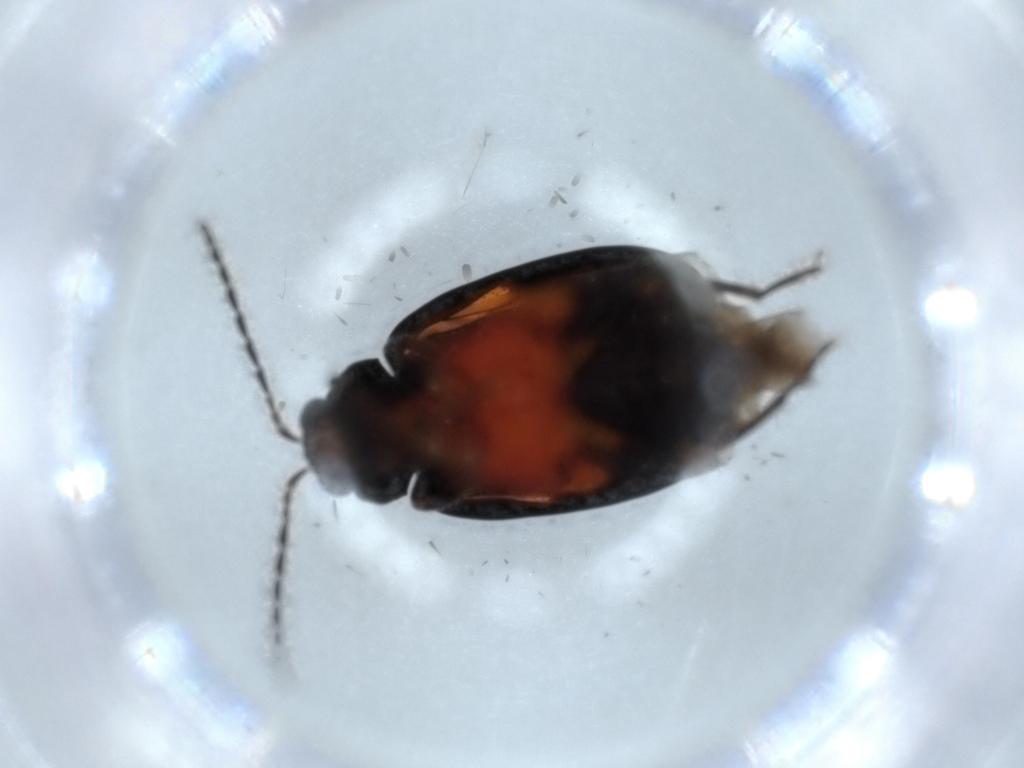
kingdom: Animalia
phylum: Arthropoda
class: Insecta
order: Coleoptera
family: Chrysomelidae
